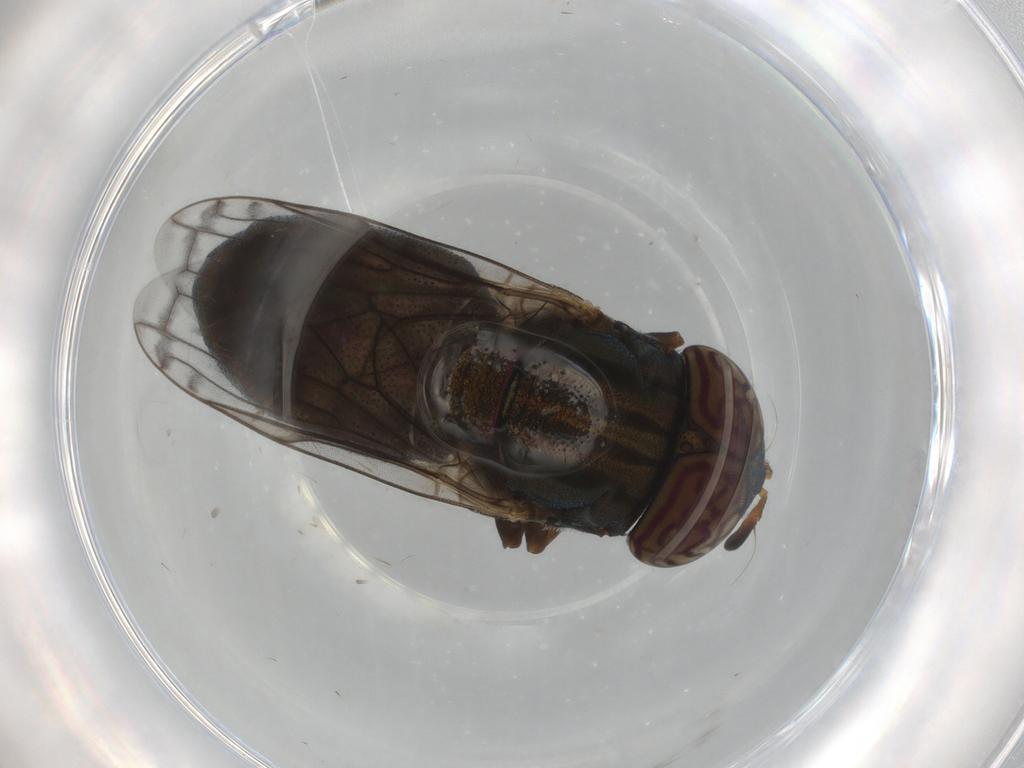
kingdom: Animalia
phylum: Arthropoda
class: Insecta
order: Diptera
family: Syrphidae
